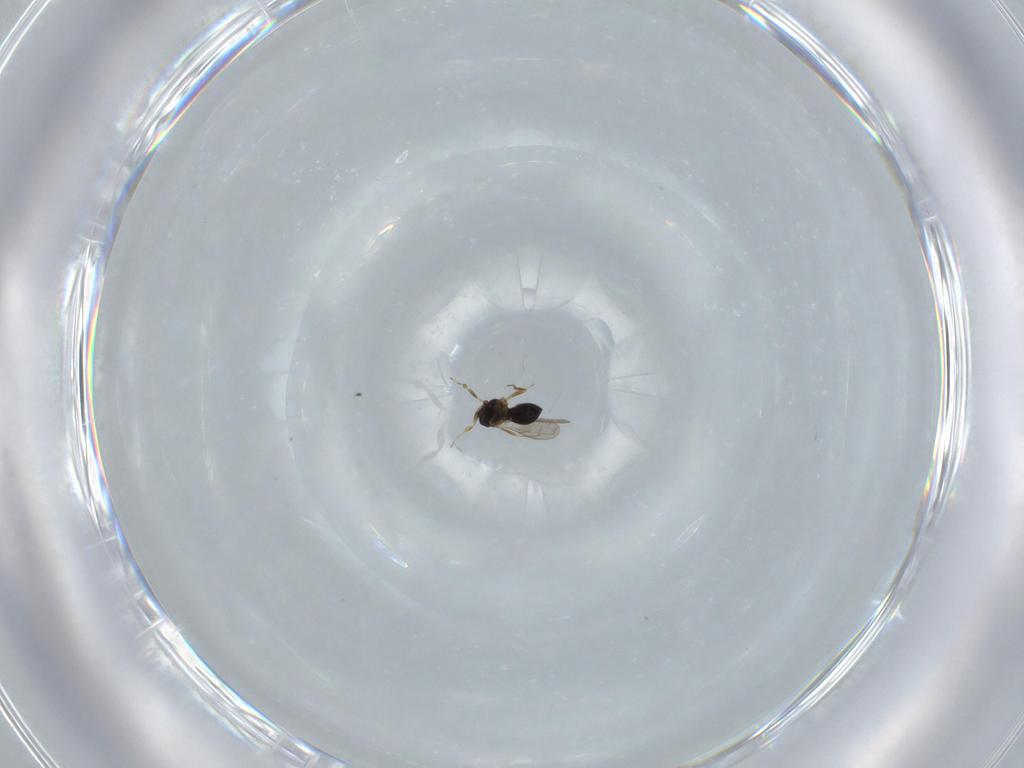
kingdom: Animalia
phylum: Arthropoda
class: Insecta
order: Hymenoptera
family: Scelionidae
